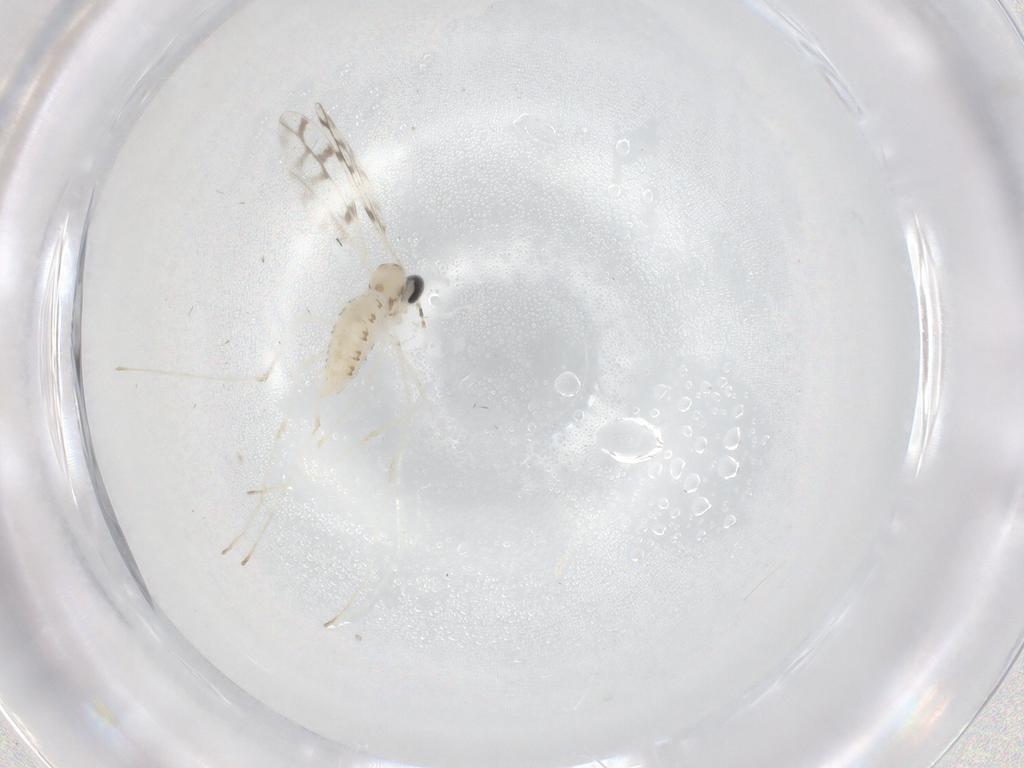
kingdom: Animalia
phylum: Arthropoda
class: Insecta
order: Diptera
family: Cecidomyiidae
